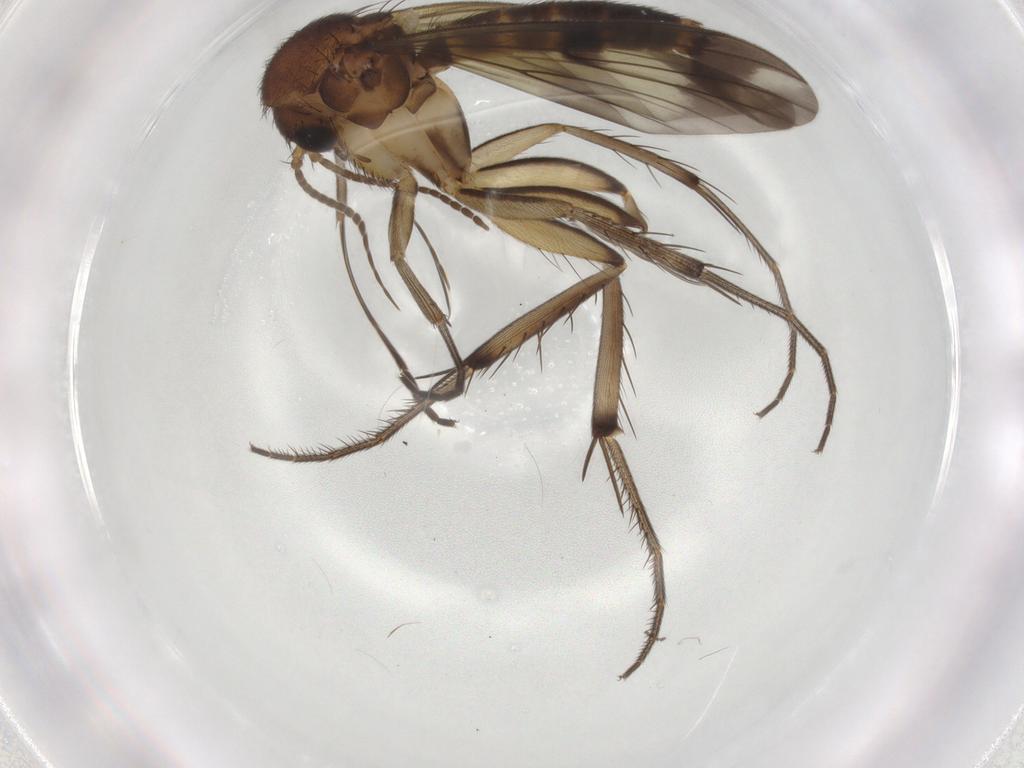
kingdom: Animalia
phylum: Arthropoda
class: Insecta
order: Diptera
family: Mycetophilidae
